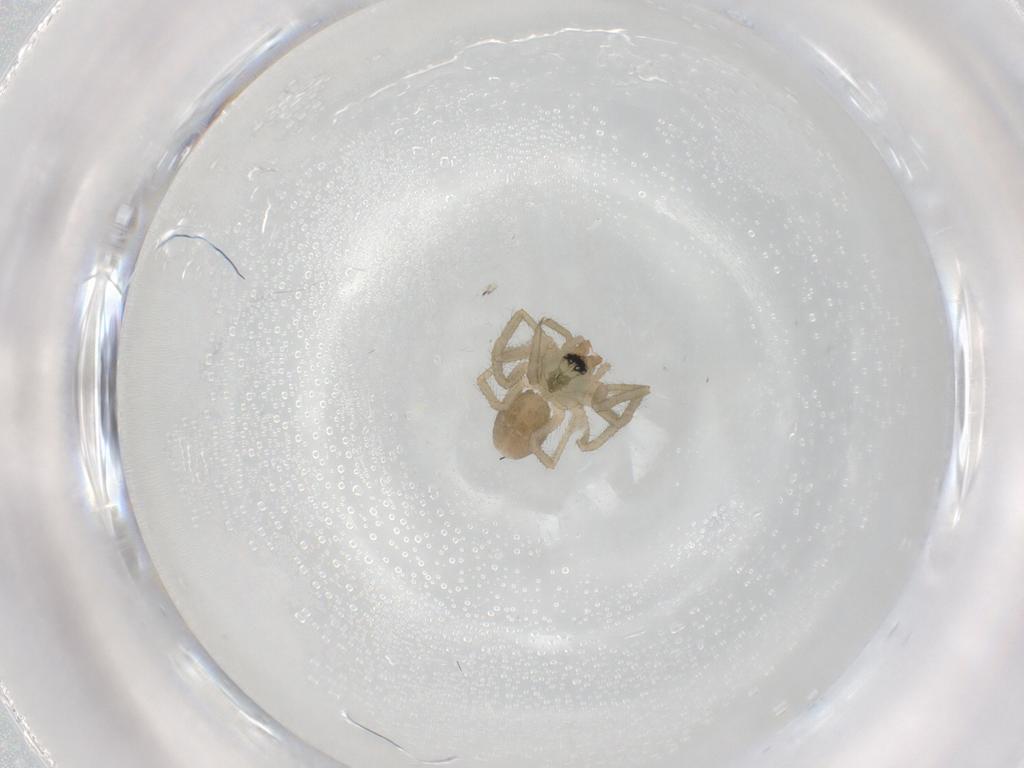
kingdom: Animalia
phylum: Arthropoda
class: Arachnida
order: Araneae
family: Linyphiidae
